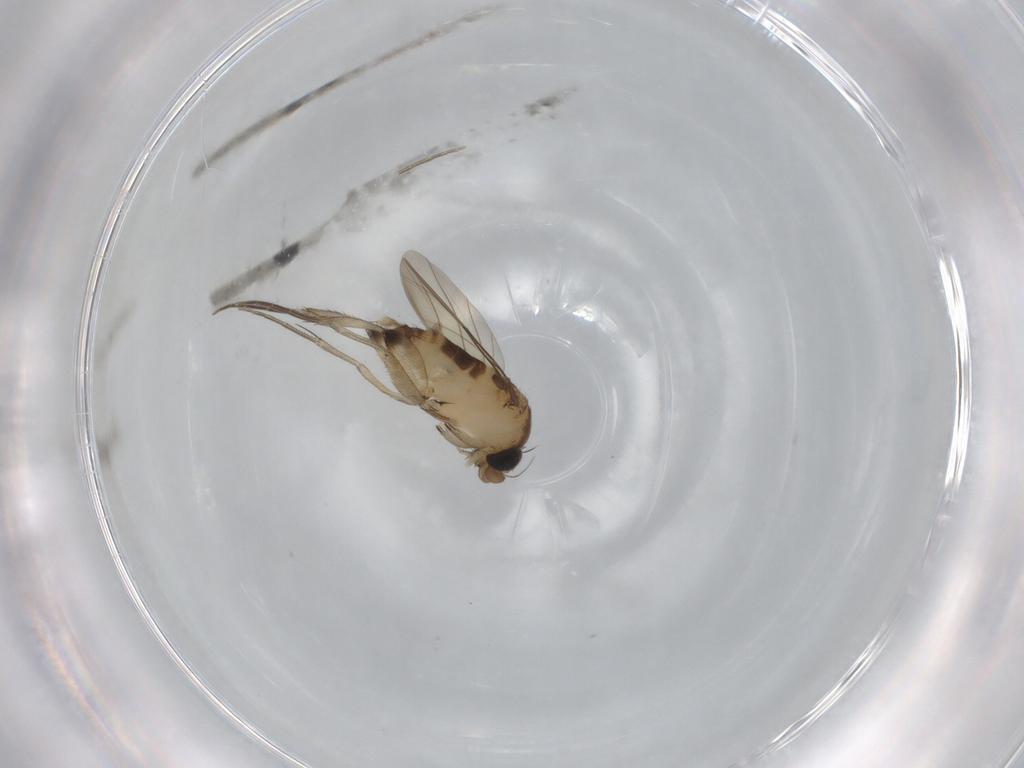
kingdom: Animalia
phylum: Arthropoda
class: Insecta
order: Diptera
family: Phoridae
